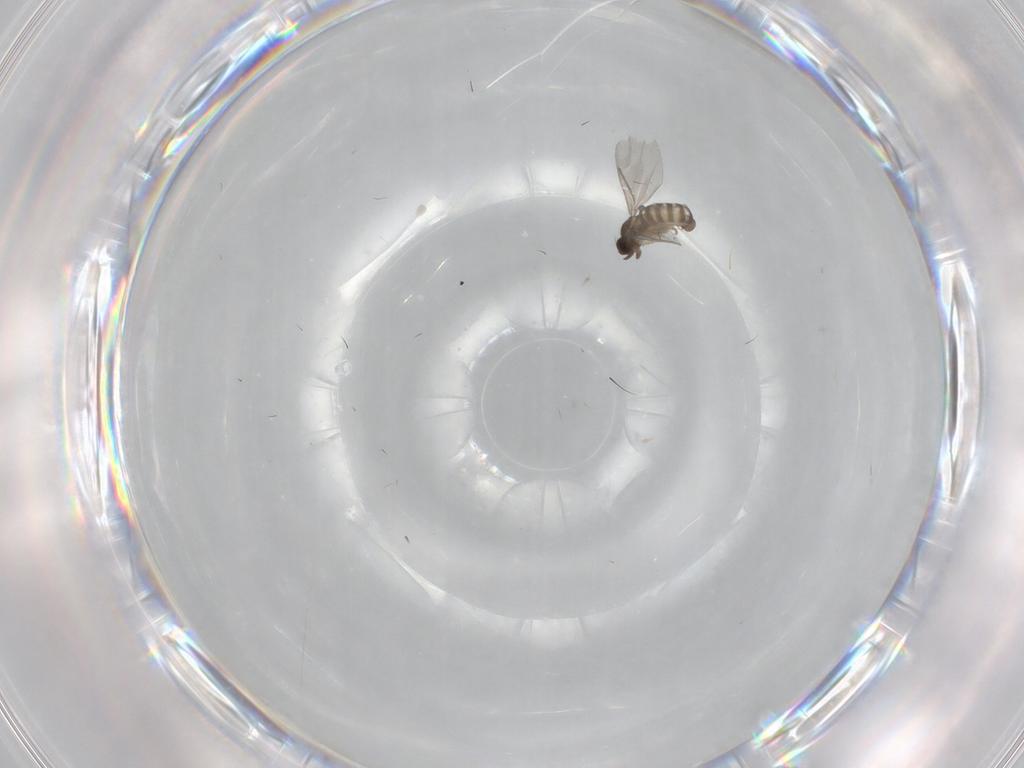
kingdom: Animalia
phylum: Arthropoda
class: Insecta
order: Diptera
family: Tabanidae
